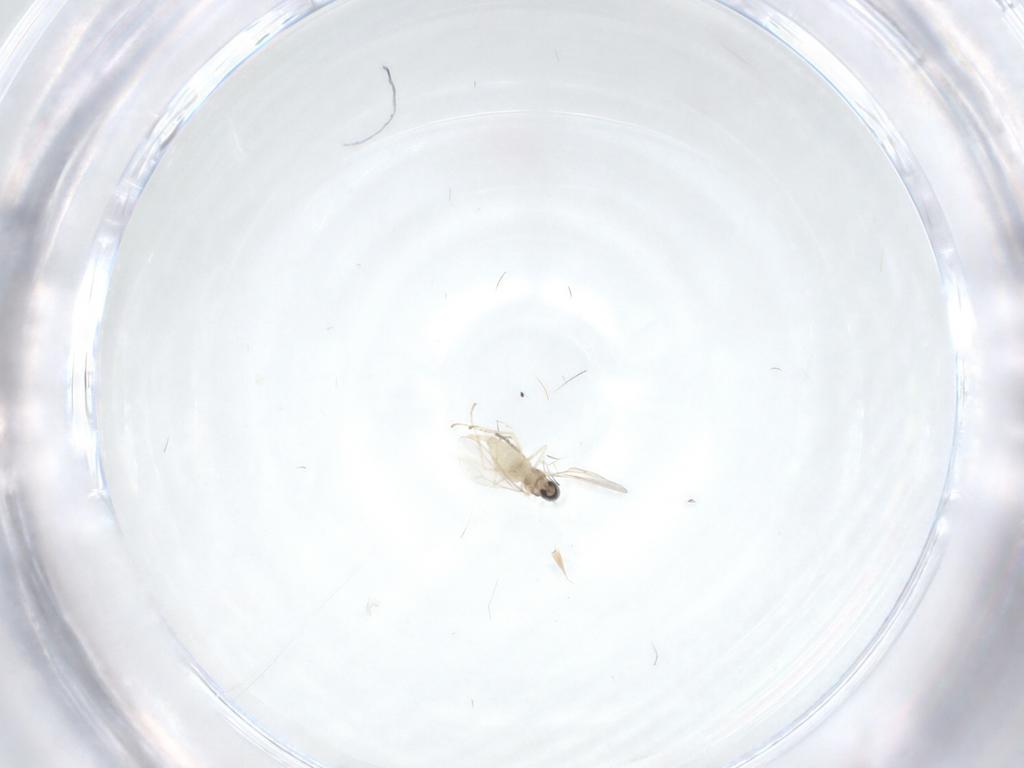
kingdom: Animalia
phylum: Arthropoda
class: Insecta
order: Diptera
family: Cecidomyiidae
